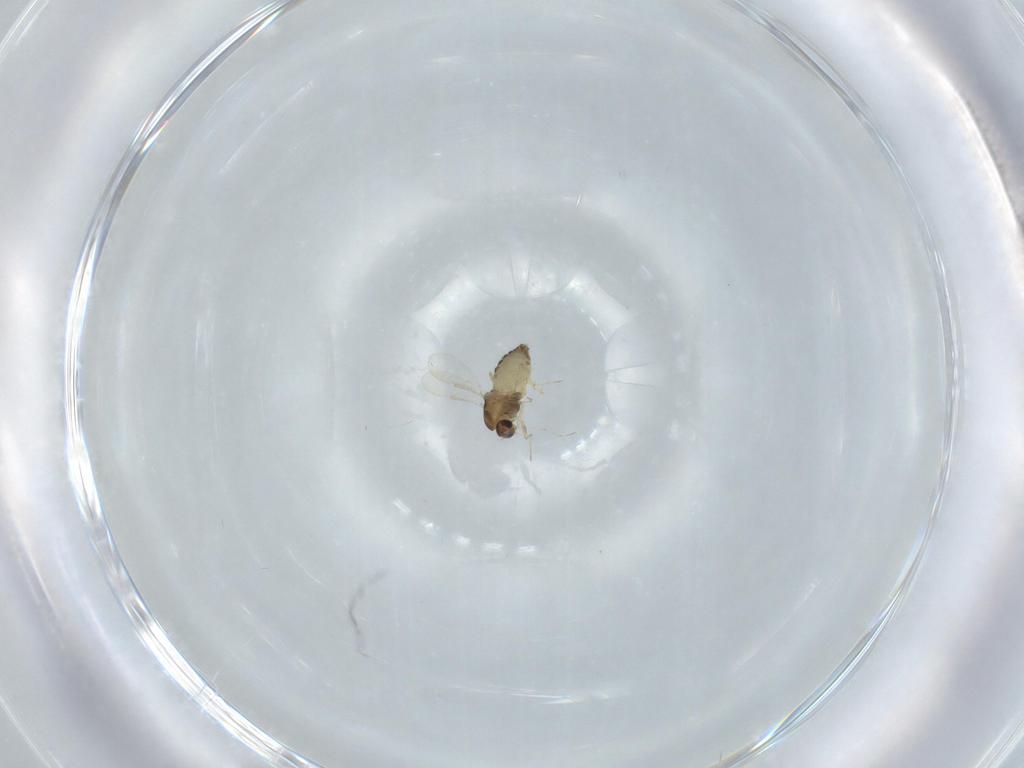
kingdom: Animalia
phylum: Arthropoda
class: Insecta
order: Diptera
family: Chironomidae
